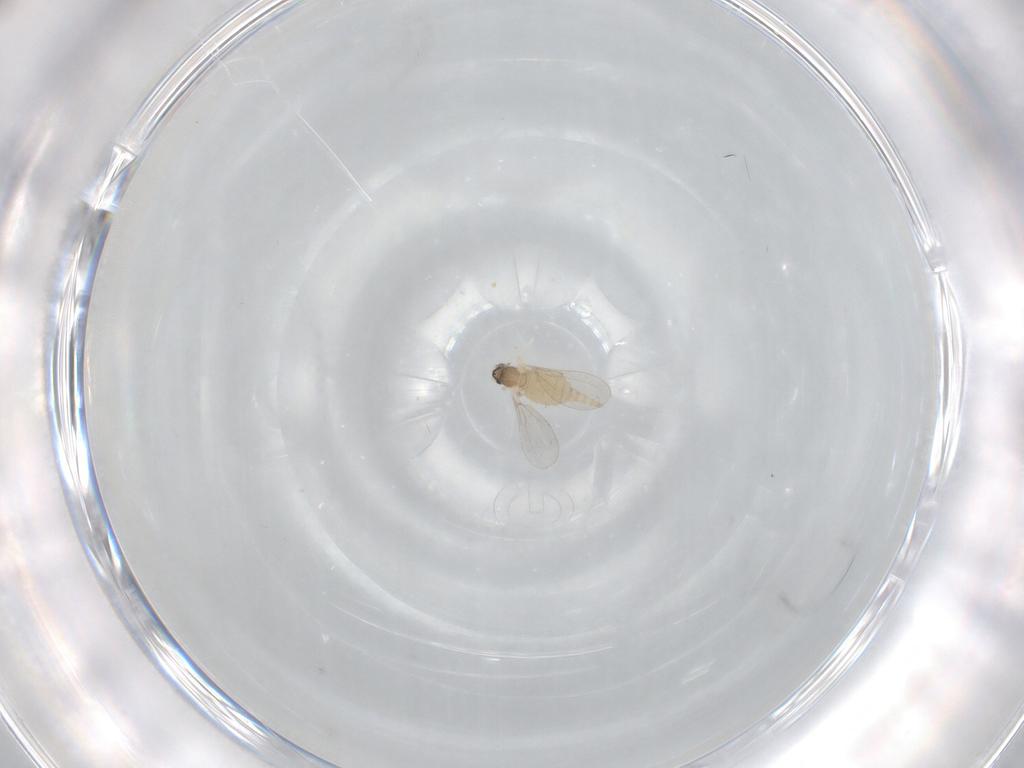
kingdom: Animalia
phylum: Arthropoda
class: Insecta
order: Diptera
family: Cecidomyiidae
